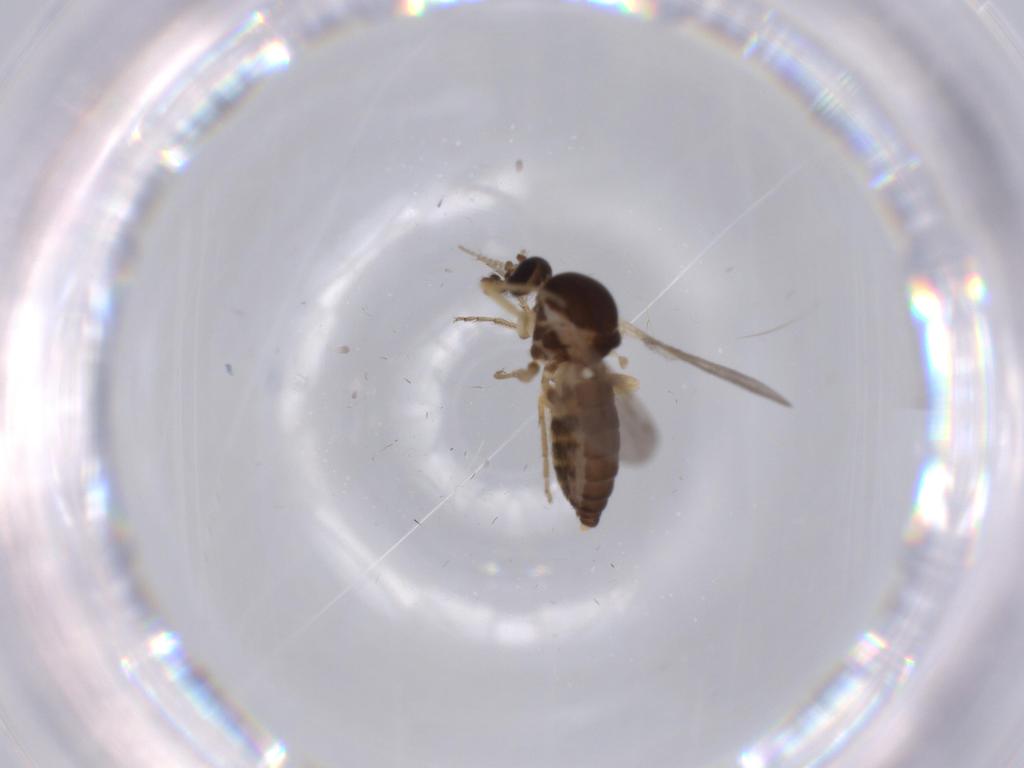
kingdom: Animalia
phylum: Arthropoda
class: Insecta
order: Diptera
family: Phoridae
